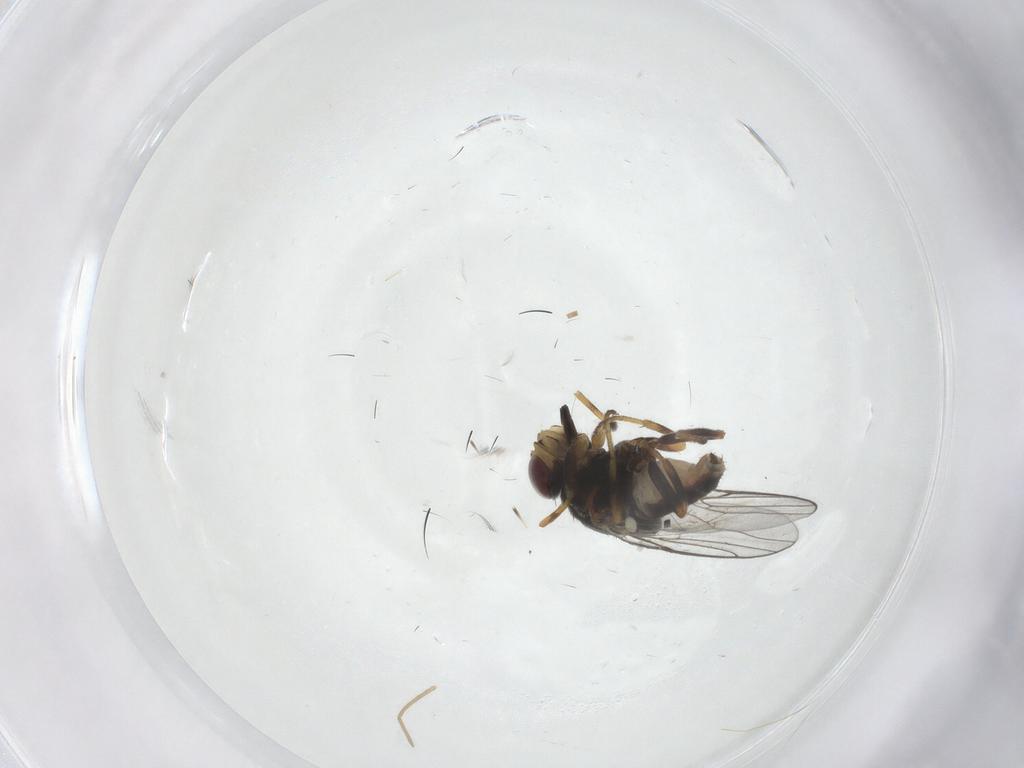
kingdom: Animalia
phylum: Arthropoda
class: Insecta
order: Diptera
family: Chloropidae
